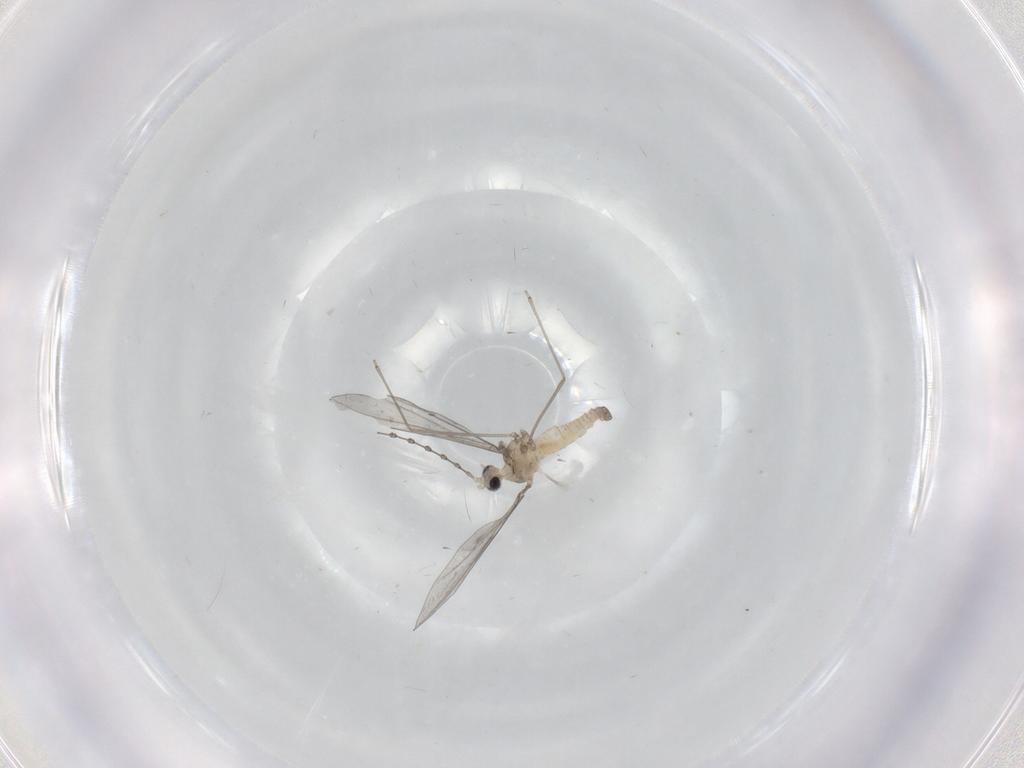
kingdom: Animalia
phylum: Arthropoda
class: Insecta
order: Diptera
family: Cecidomyiidae
